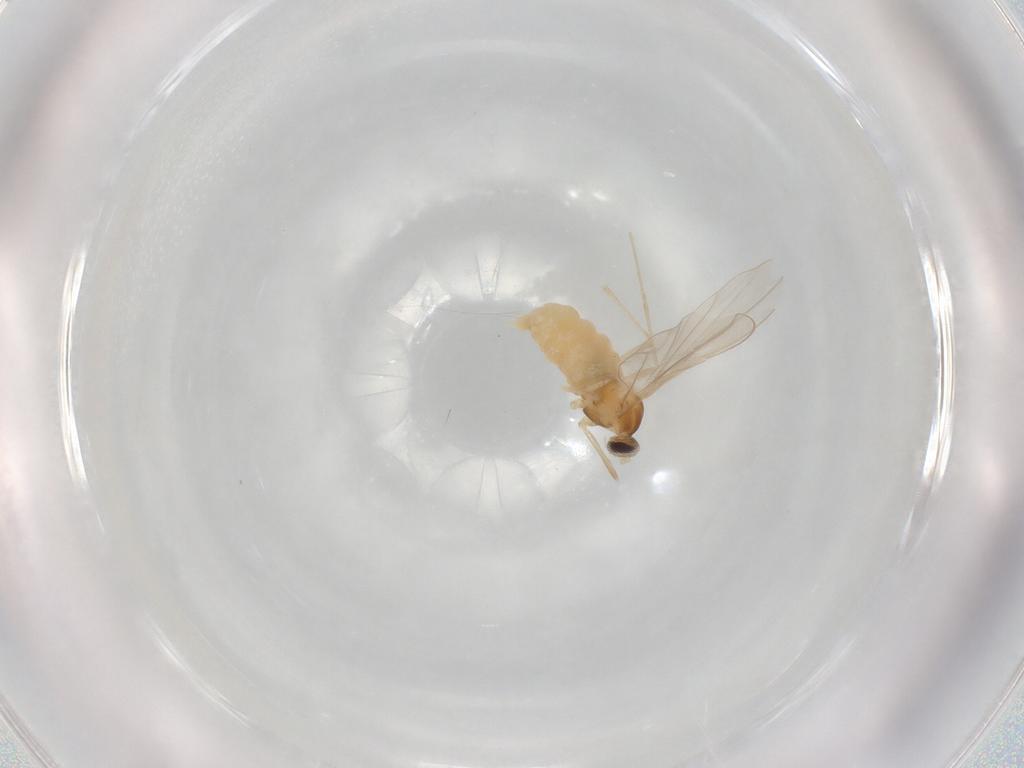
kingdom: Animalia
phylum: Arthropoda
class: Insecta
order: Diptera
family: Cecidomyiidae
